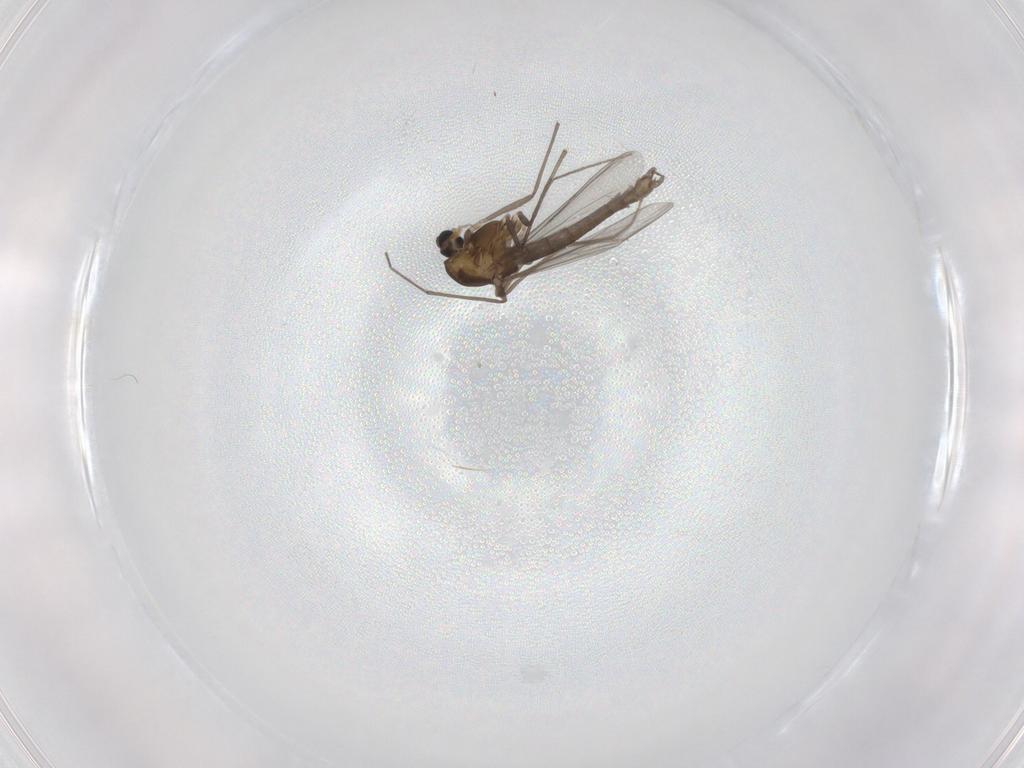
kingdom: Animalia
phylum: Arthropoda
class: Insecta
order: Diptera
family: Chironomidae
